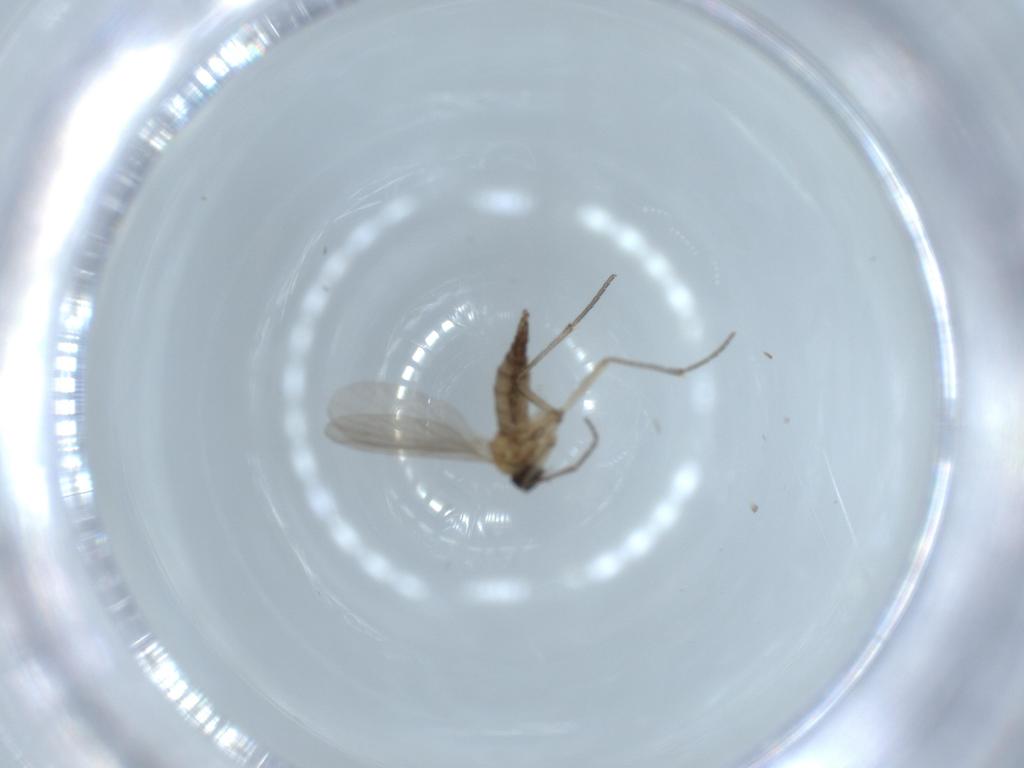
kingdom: Animalia
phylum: Arthropoda
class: Insecta
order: Diptera
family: Sciaridae
